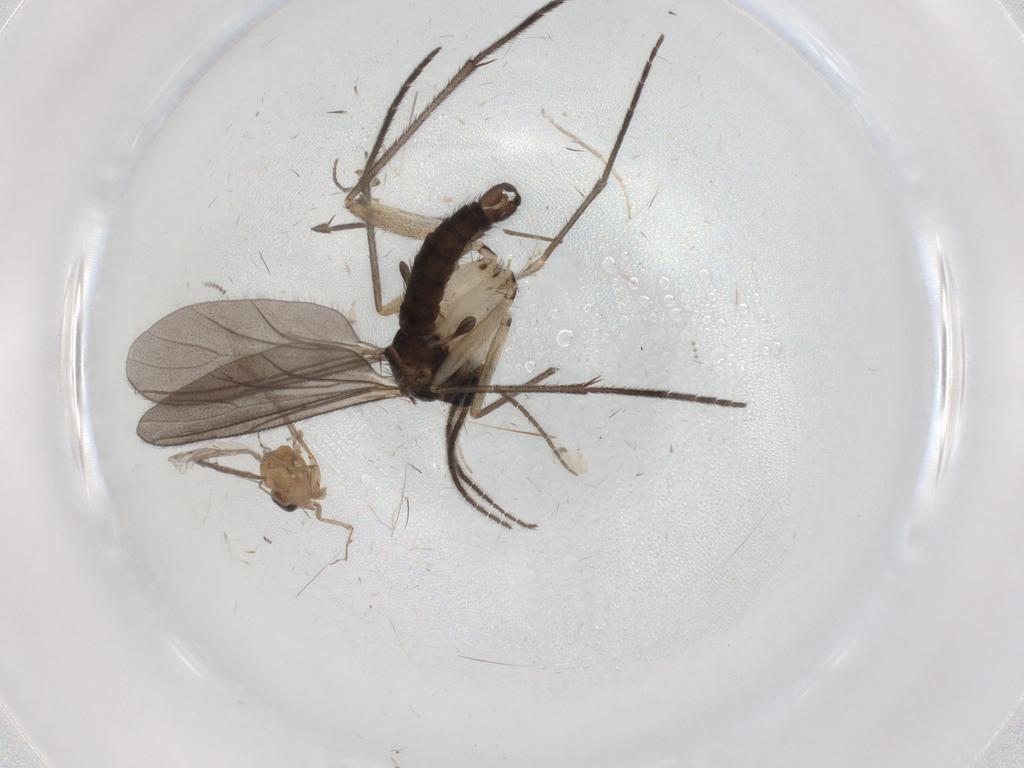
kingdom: Animalia
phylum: Arthropoda
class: Insecta
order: Diptera
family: Sciaridae
